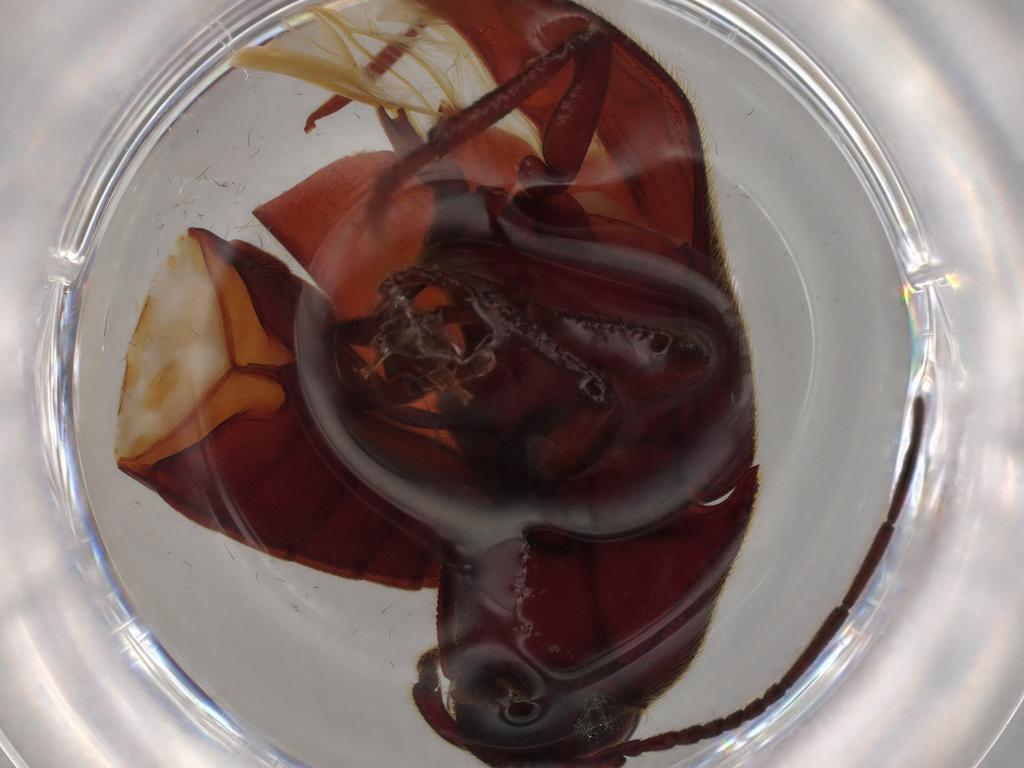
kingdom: Animalia
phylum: Arthropoda
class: Insecta
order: Coleoptera
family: Eucnemidae
